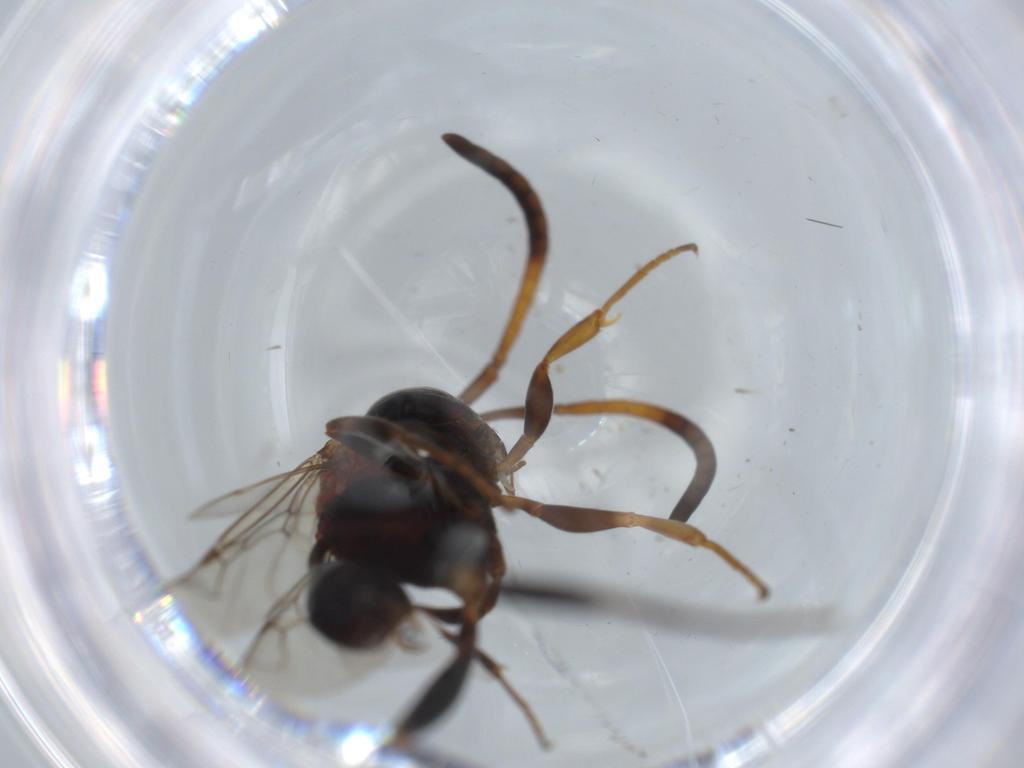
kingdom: Animalia
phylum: Arthropoda
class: Insecta
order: Hymenoptera
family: Evaniidae
